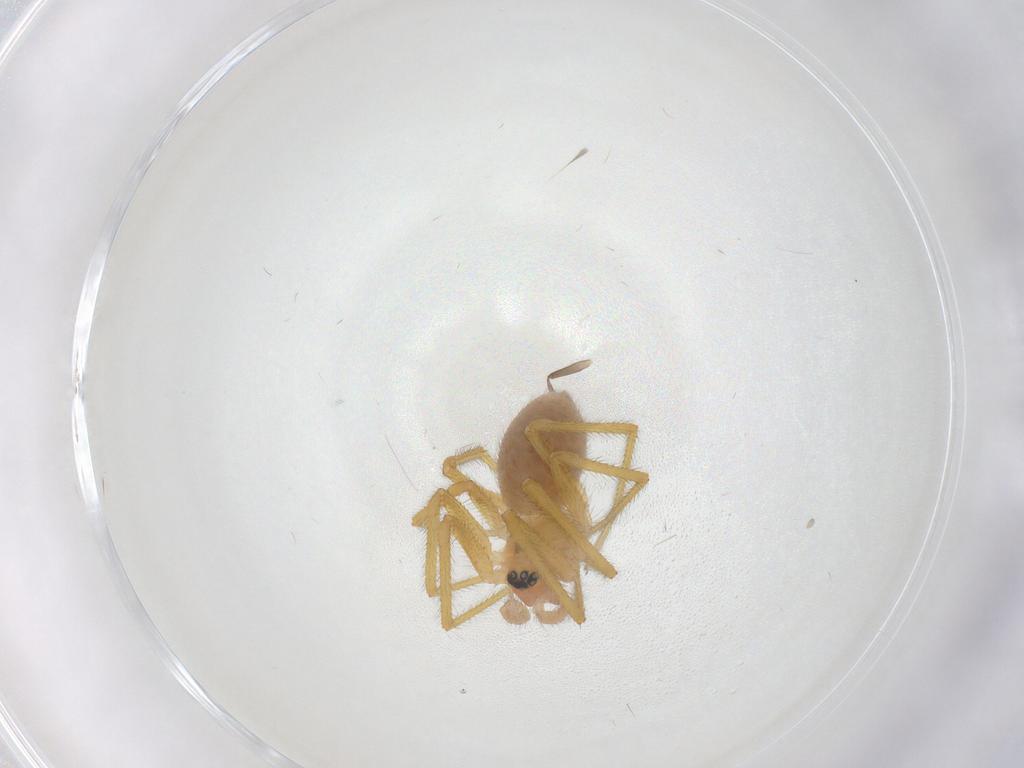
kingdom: Animalia
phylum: Arthropoda
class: Arachnida
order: Araneae
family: Linyphiidae
